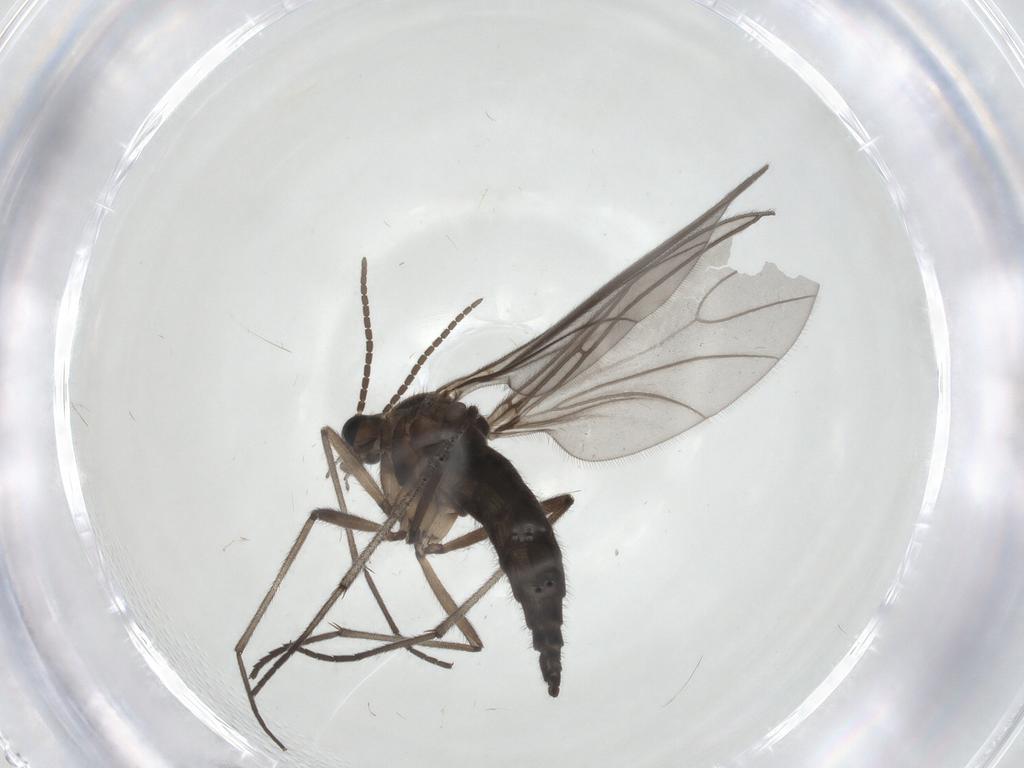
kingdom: Animalia
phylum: Arthropoda
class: Insecta
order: Diptera
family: Sciaridae
